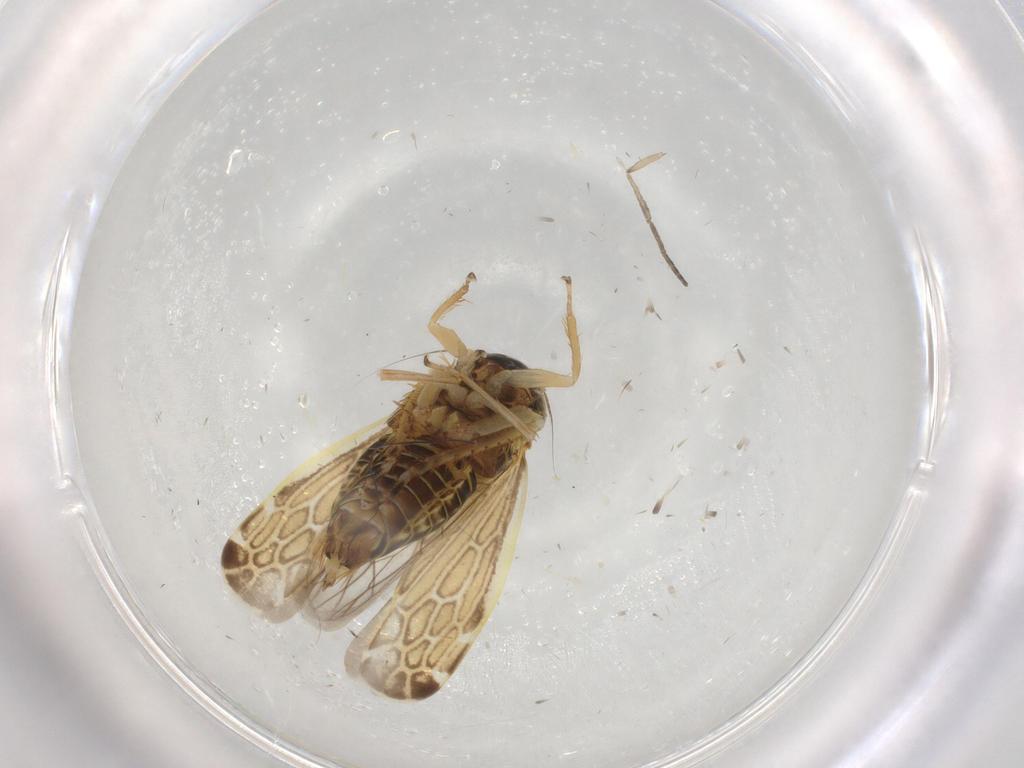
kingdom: Animalia
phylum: Arthropoda
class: Insecta
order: Hemiptera
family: Cicadellidae
